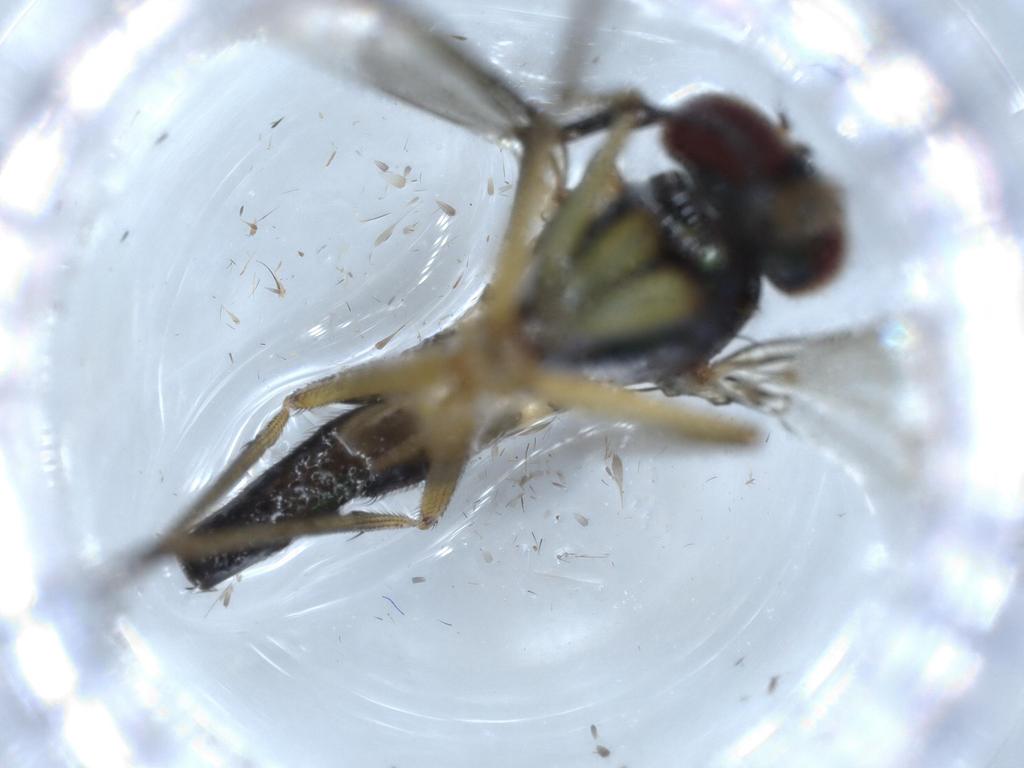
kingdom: Animalia
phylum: Arthropoda
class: Insecta
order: Diptera
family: Dolichopodidae
